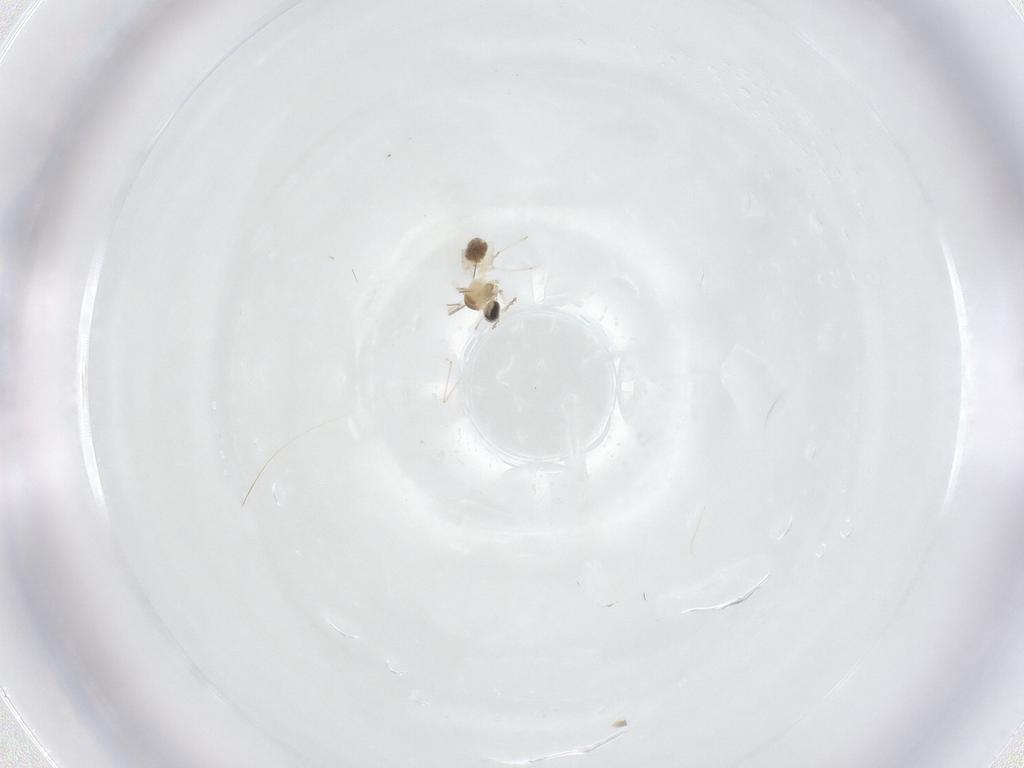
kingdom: Animalia
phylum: Arthropoda
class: Insecta
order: Diptera
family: Cecidomyiidae
